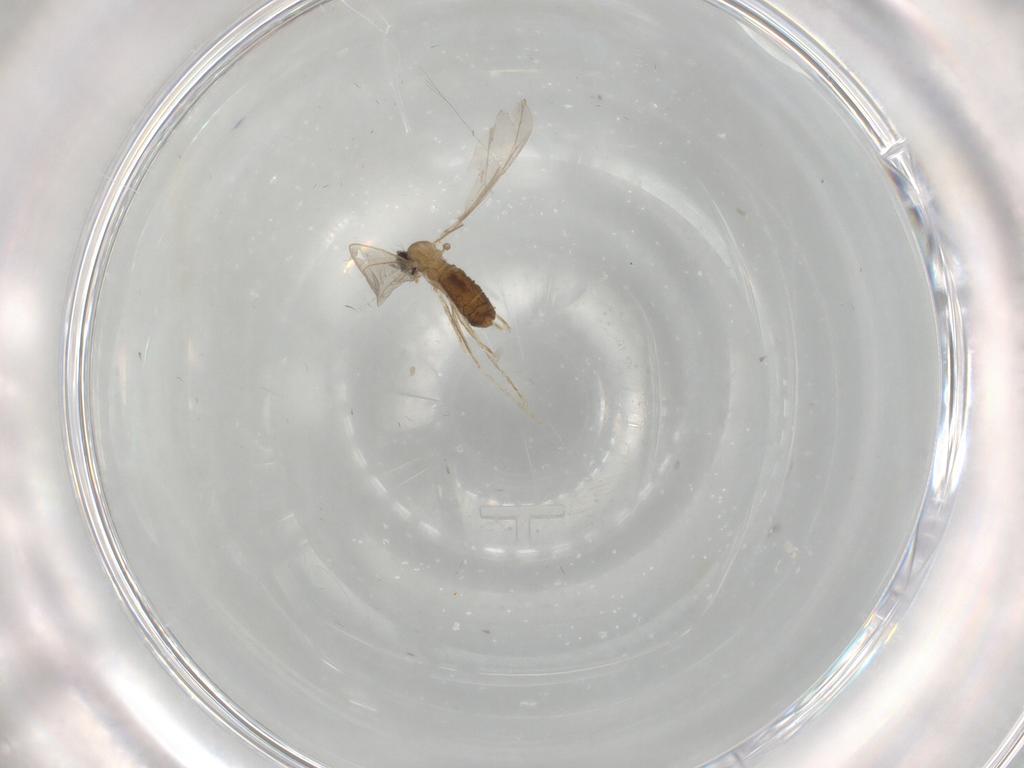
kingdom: Animalia
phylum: Arthropoda
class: Insecta
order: Diptera
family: Cecidomyiidae
